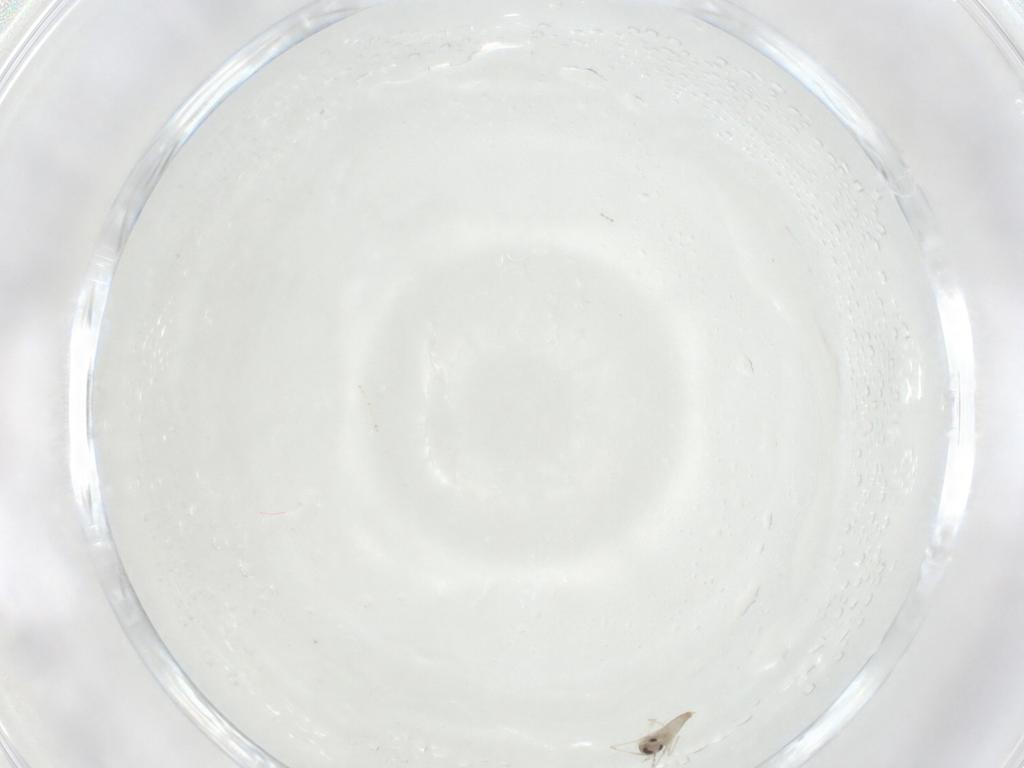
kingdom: Animalia
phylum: Arthropoda
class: Insecta
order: Diptera
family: Cecidomyiidae
